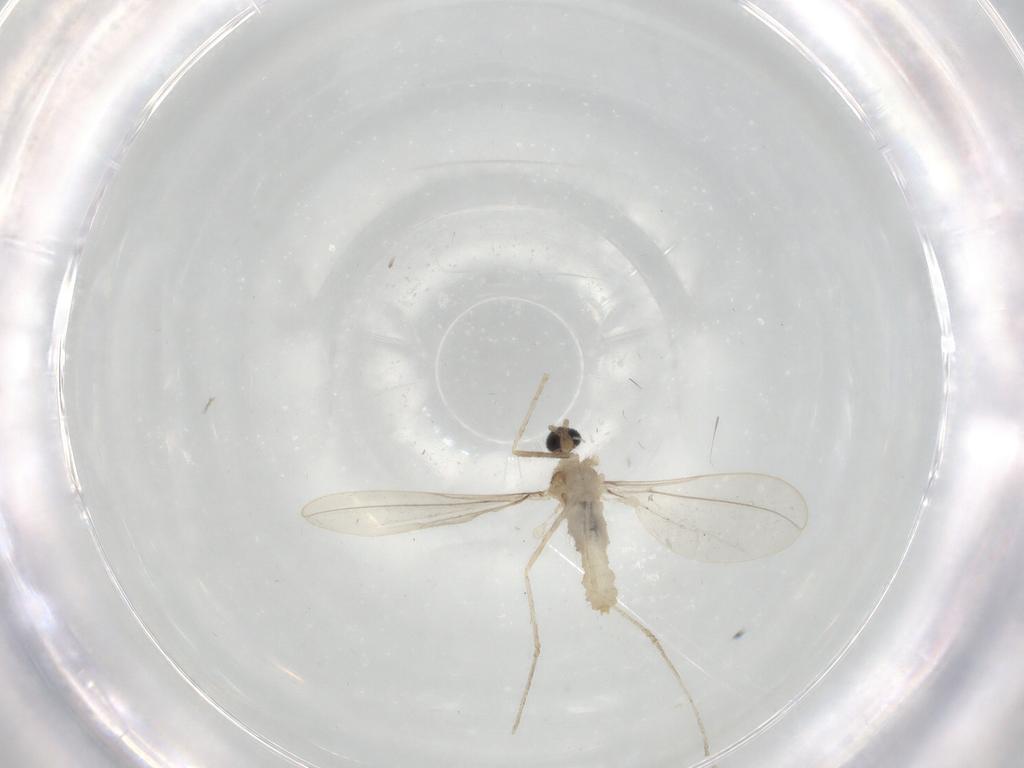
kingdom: Animalia
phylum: Arthropoda
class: Insecta
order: Diptera
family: Cecidomyiidae
